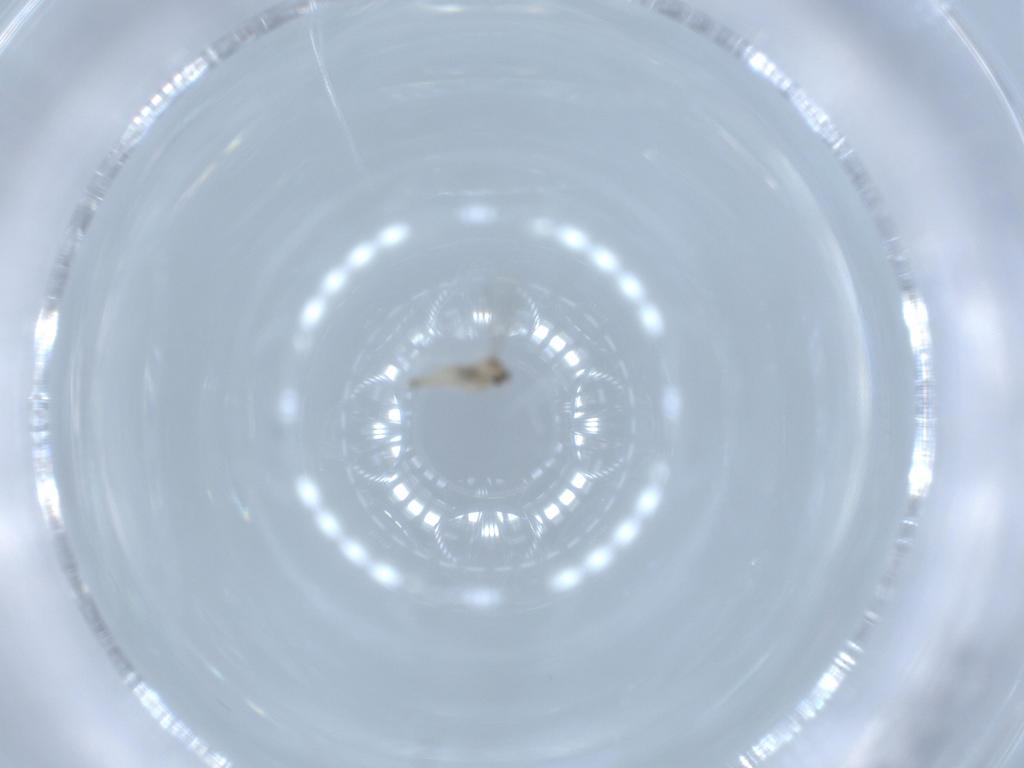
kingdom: Animalia
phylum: Arthropoda
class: Insecta
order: Diptera
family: Cecidomyiidae
